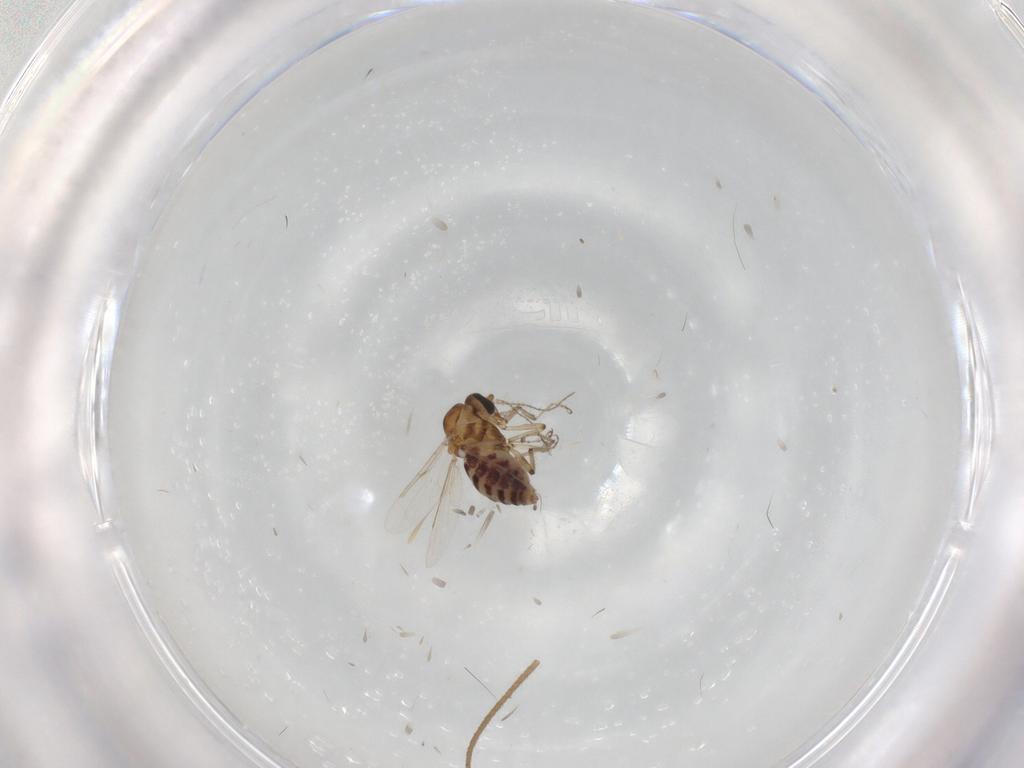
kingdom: Animalia
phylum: Arthropoda
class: Insecta
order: Diptera
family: Ceratopogonidae
